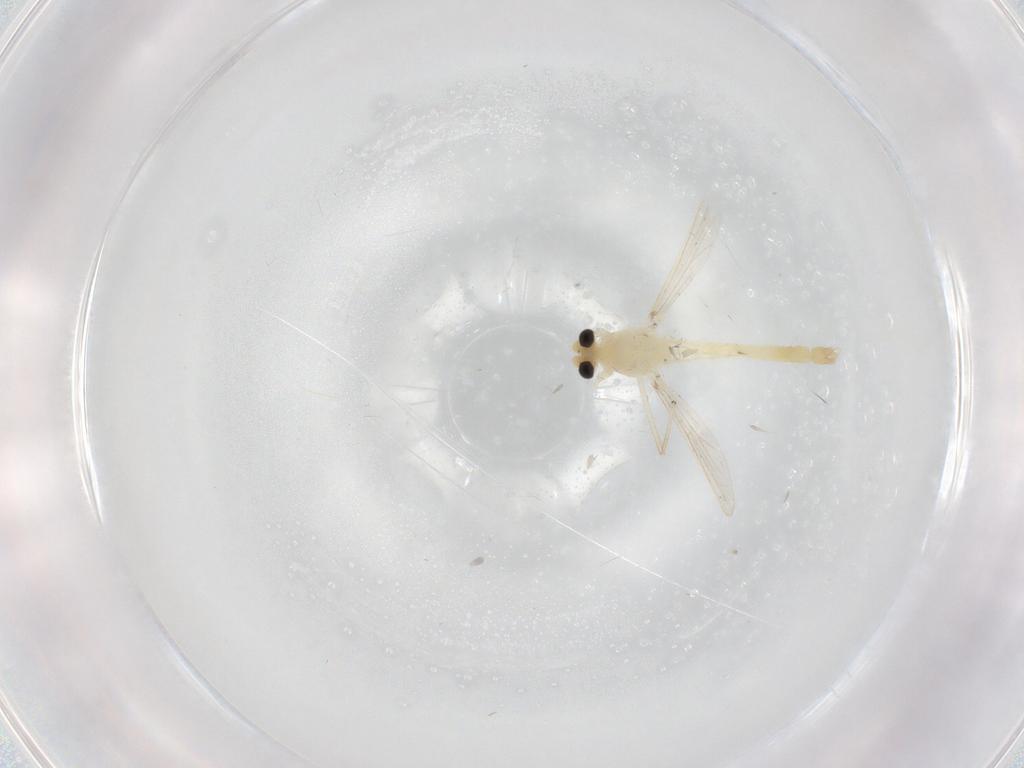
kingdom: Animalia
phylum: Arthropoda
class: Insecta
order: Diptera
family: Chironomidae
